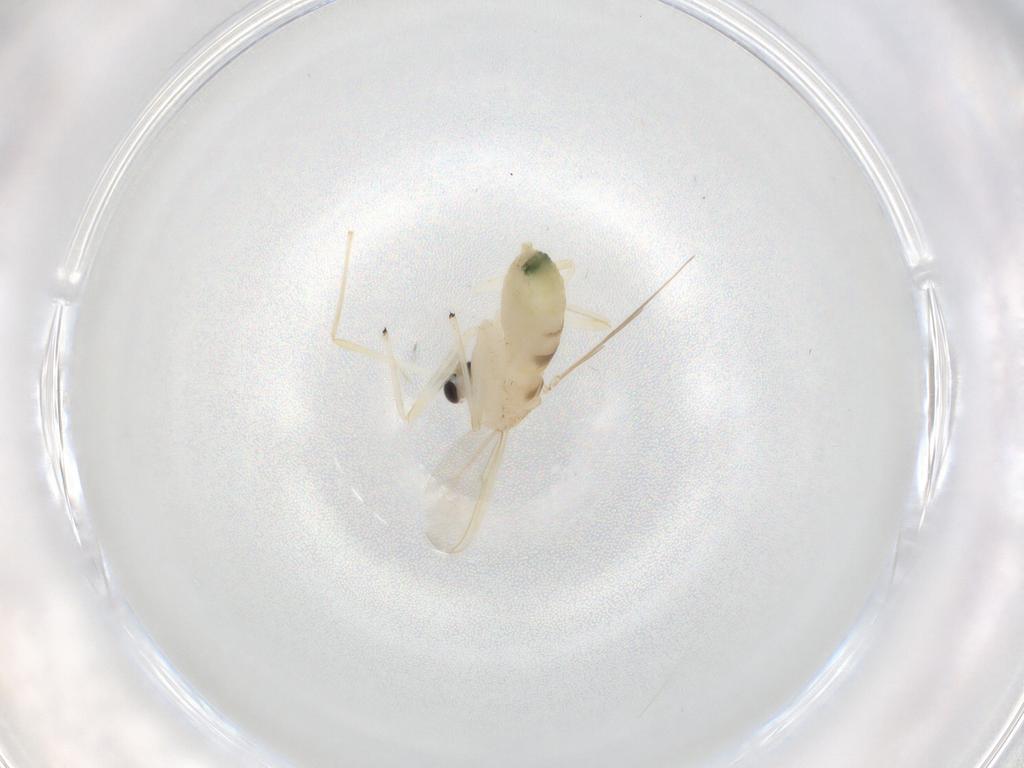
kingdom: Animalia
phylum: Arthropoda
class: Insecta
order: Diptera
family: Chironomidae
